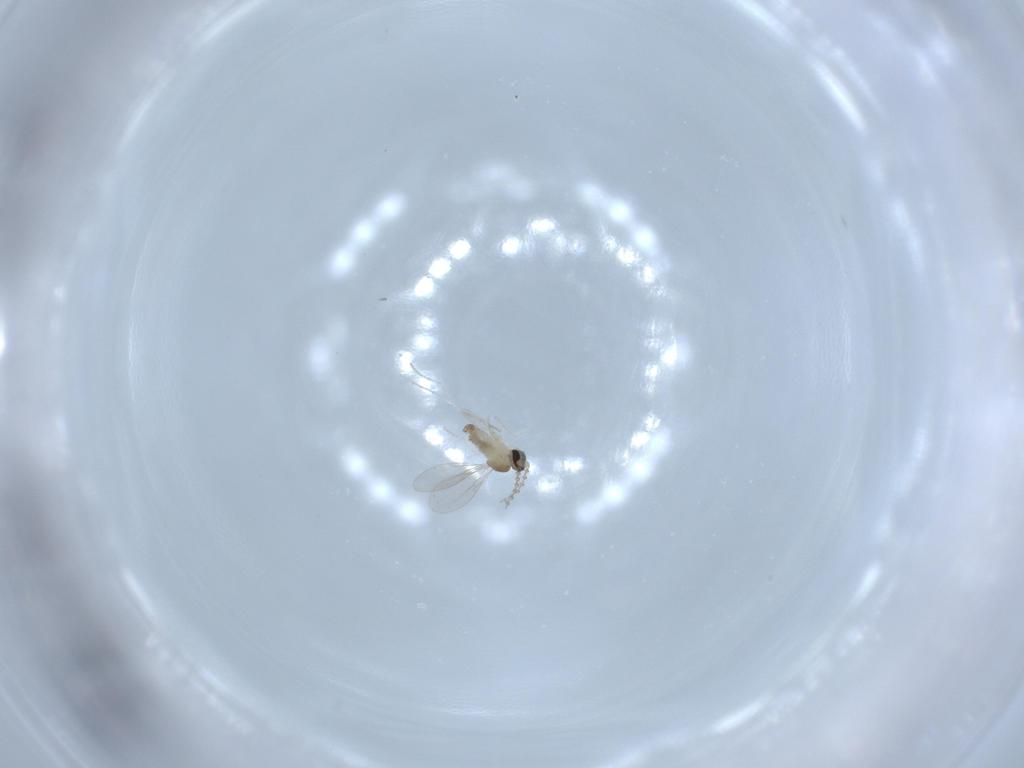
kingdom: Animalia
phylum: Arthropoda
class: Insecta
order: Diptera
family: Cecidomyiidae
